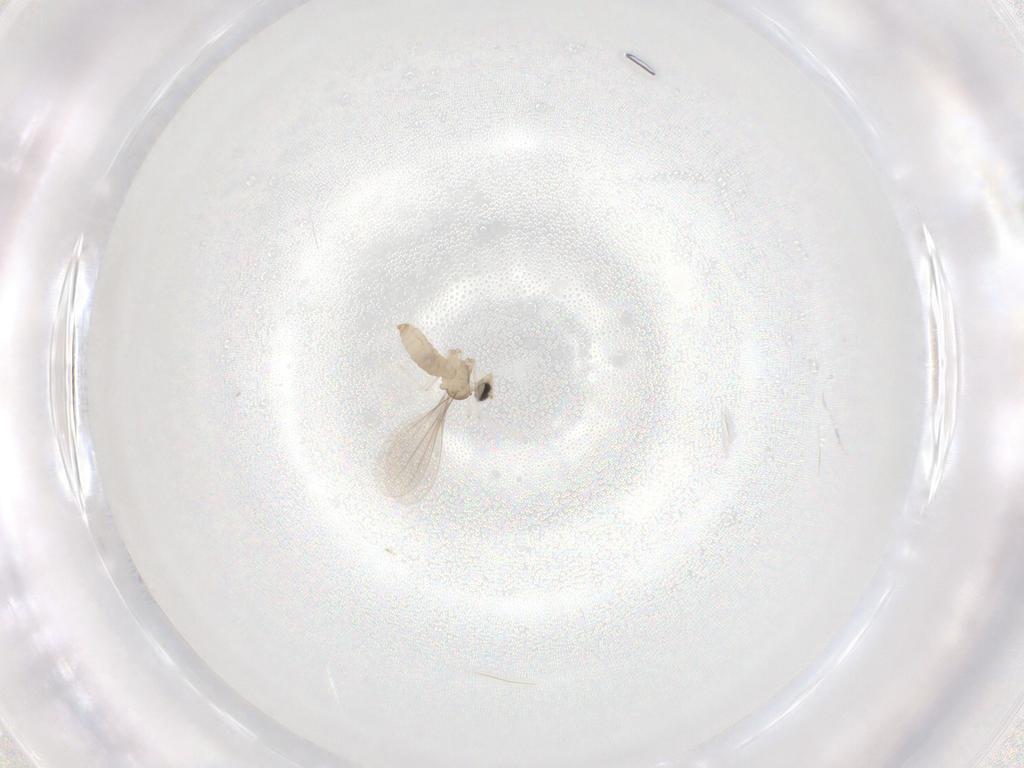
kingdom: Animalia
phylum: Arthropoda
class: Insecta
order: Diptera
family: Cecidomyiidae
